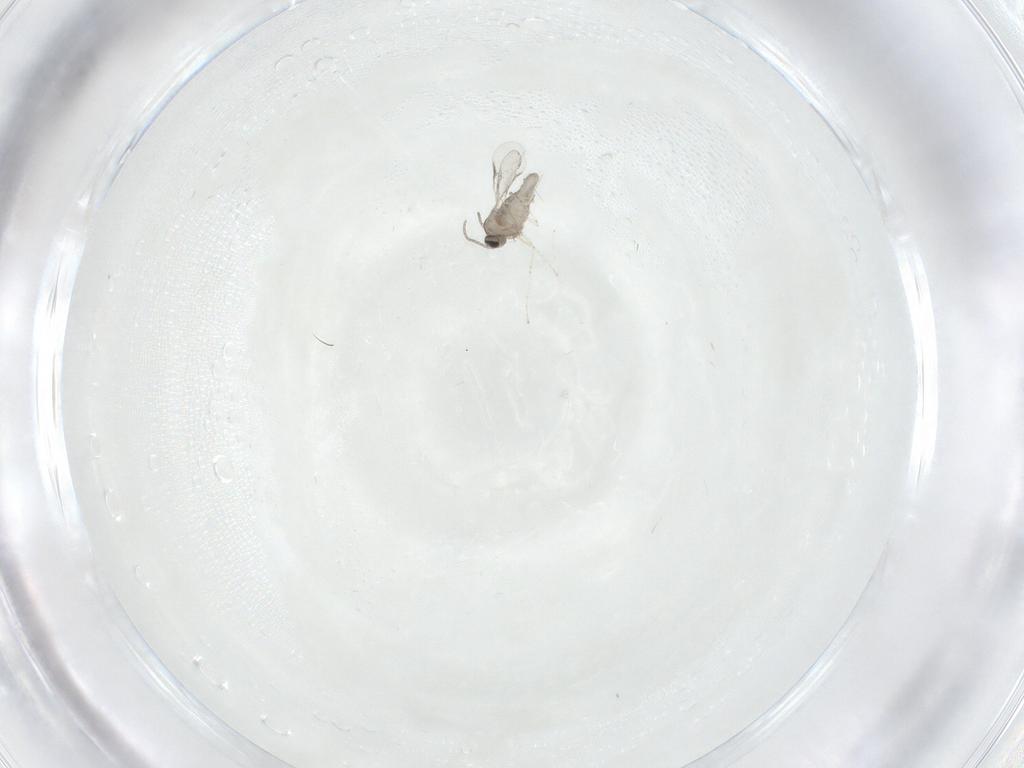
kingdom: Animalia
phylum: Arthropoda
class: Insecta
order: Diptera
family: Cecidomyiidae
